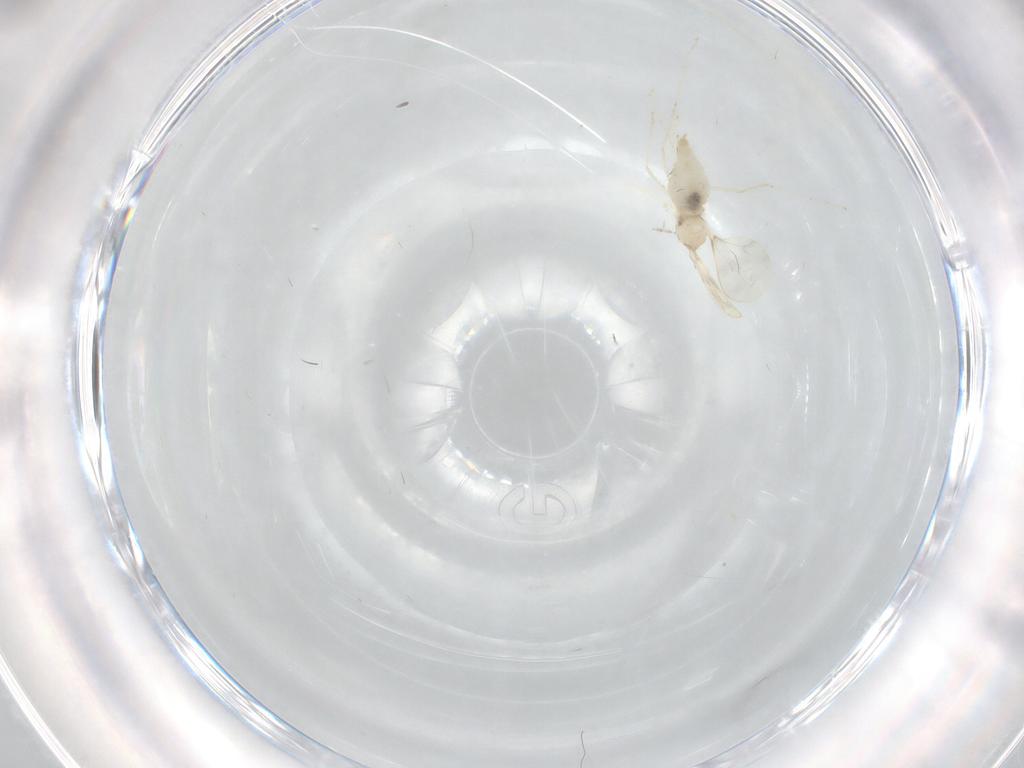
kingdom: Animalia
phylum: Arthropoda
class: Insecta
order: Diptera
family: Cecidomyiidae
